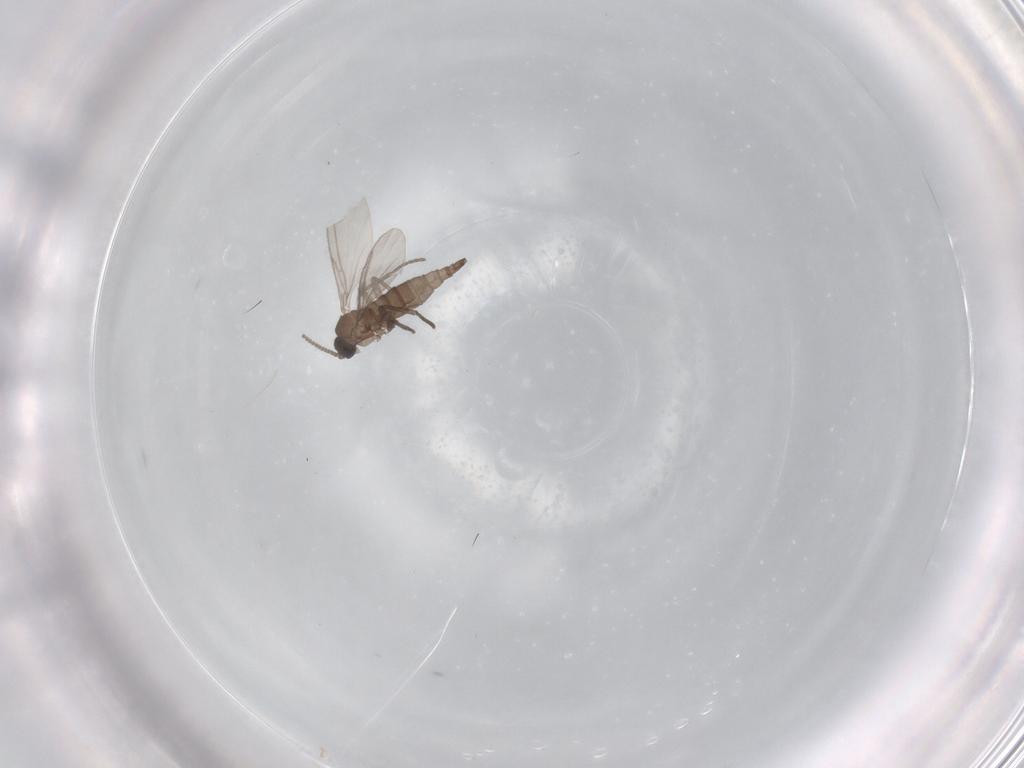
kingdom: Animalia
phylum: Arthropoda
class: Insecta
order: Diptera
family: Sciaridae
